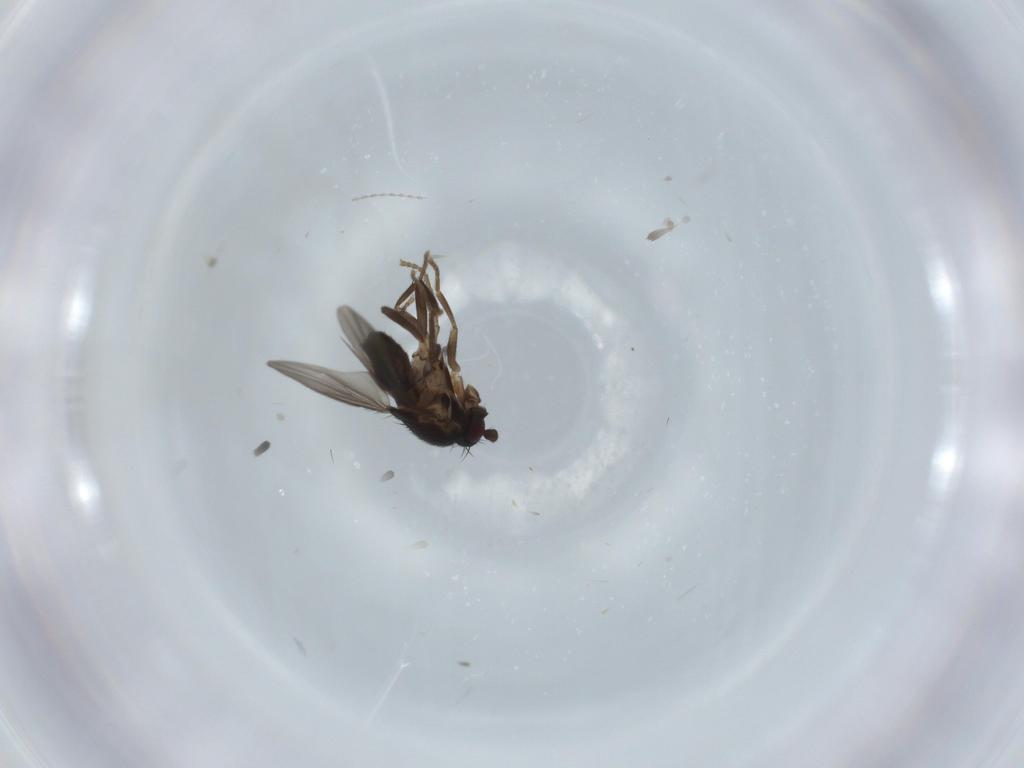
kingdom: Animalia
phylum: Arthropoda
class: Insecta
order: Diptera
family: Sphaeroceridae
